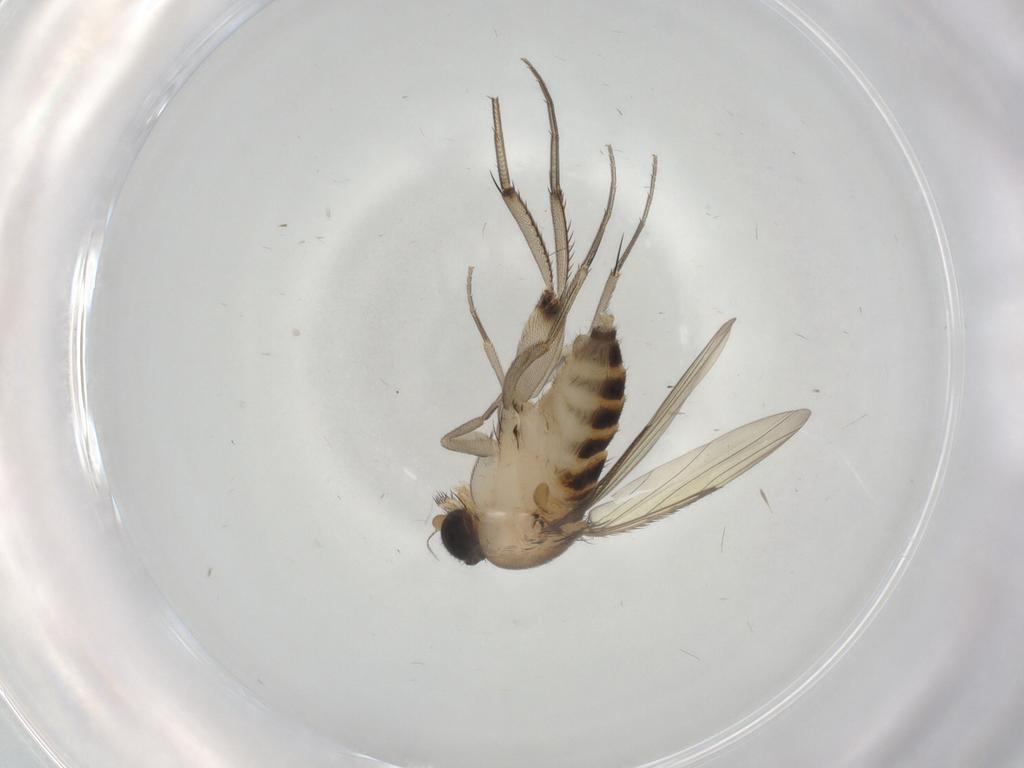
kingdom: Animalia
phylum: Arthropoda
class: Insecta
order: Diptera
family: Phoridae
